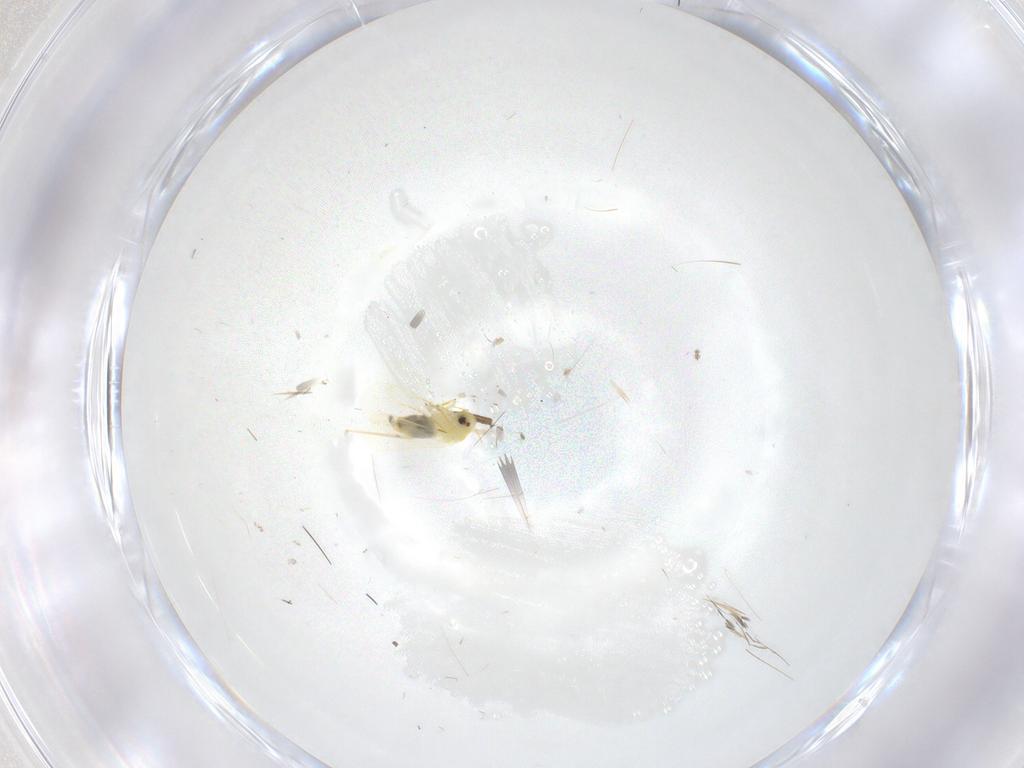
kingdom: Animalia
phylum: Arthropoda
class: Insecta
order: Hemiptera
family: Aleyrodidae
